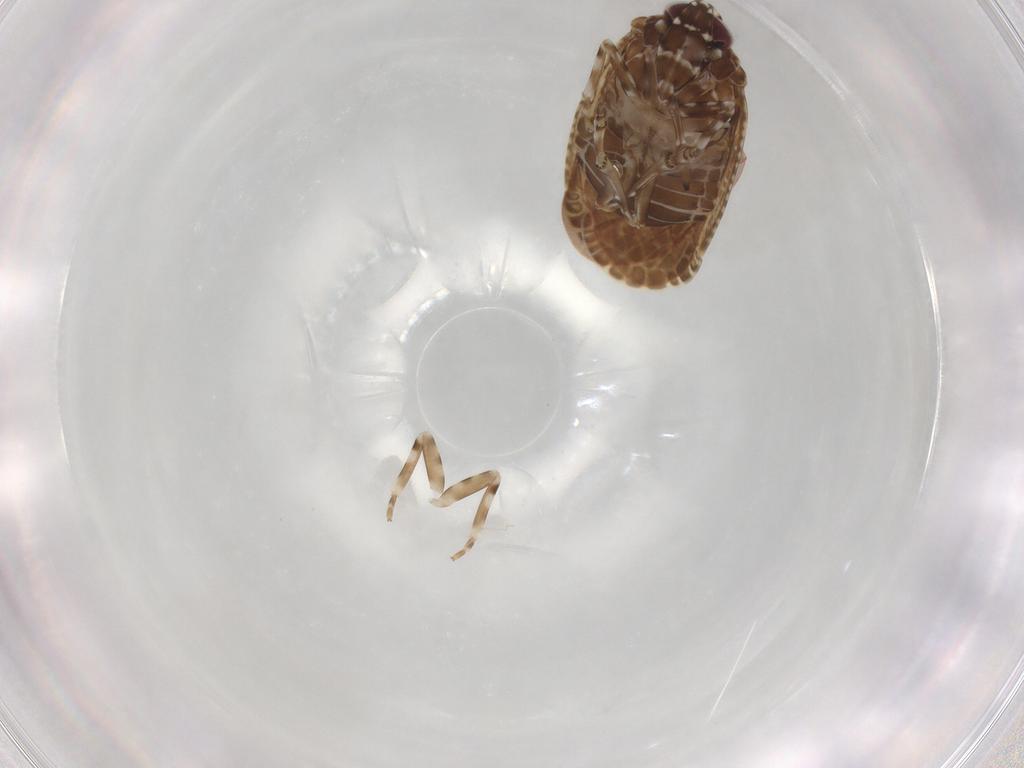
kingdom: Animalia
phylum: Arthropoda
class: Insecta
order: Hemiptera
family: Achilidae
